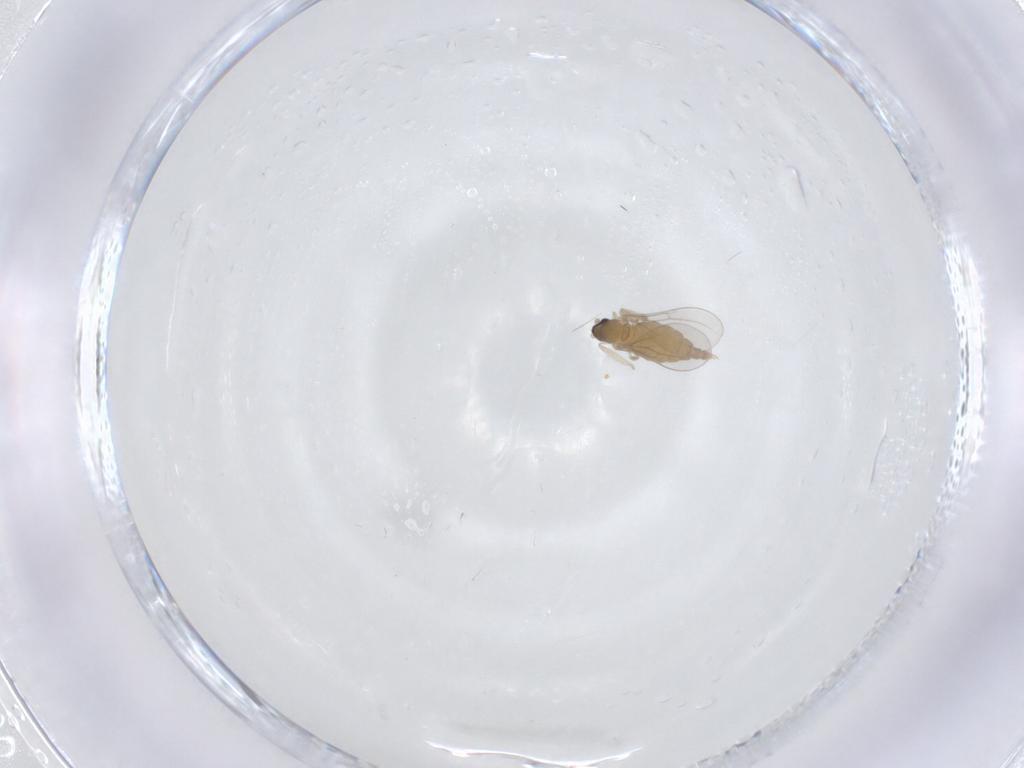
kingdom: Animalia
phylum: Arthropoda
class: Insecta
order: Diptera
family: Cecidomyiidae
